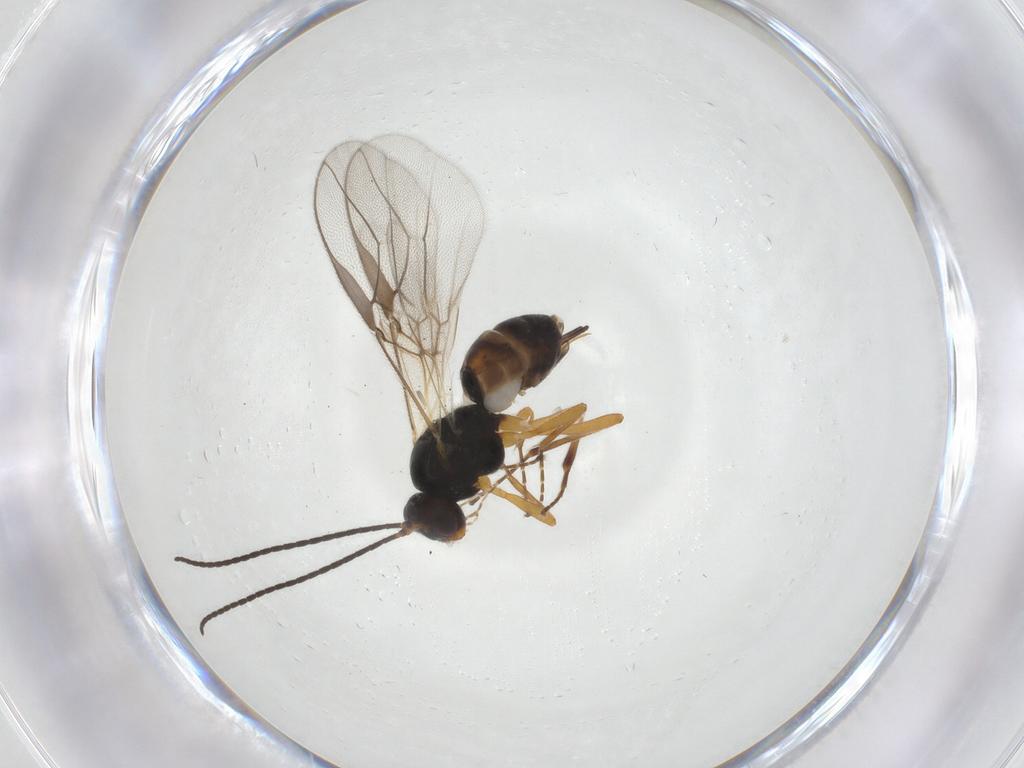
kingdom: Animalia
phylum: Arthropoda
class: Insecta
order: Hymenoptera
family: Braconidae
